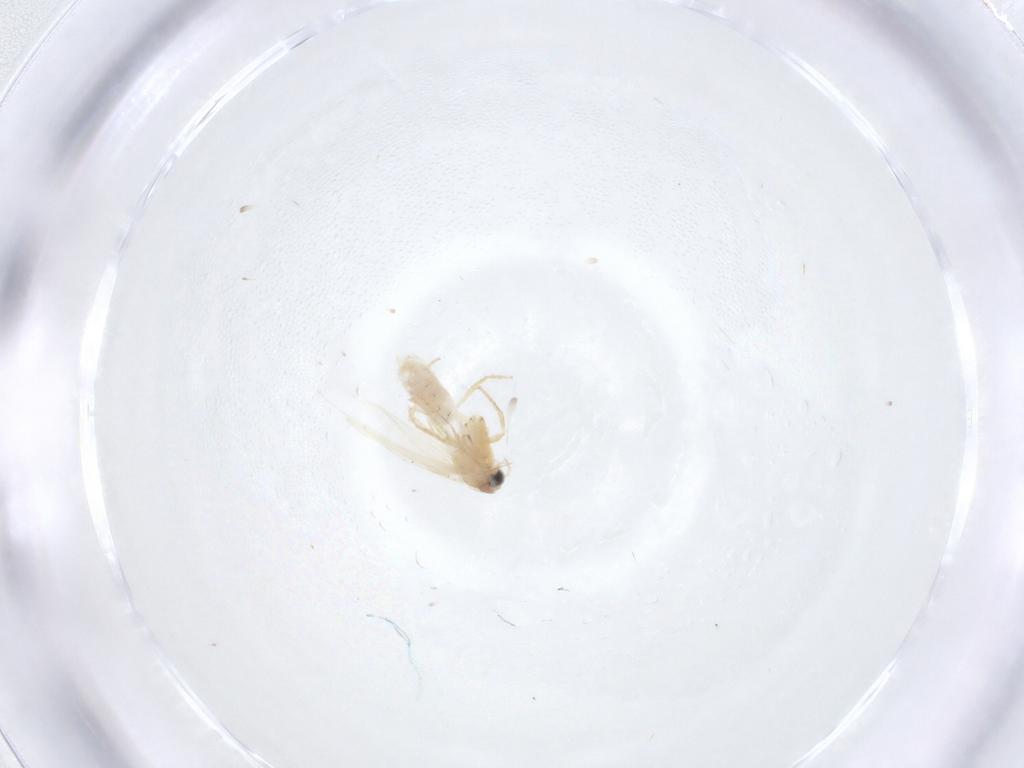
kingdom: Animalia
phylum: Arthropoda
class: Insecta
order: Lepidoptera
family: Nepticulidae
